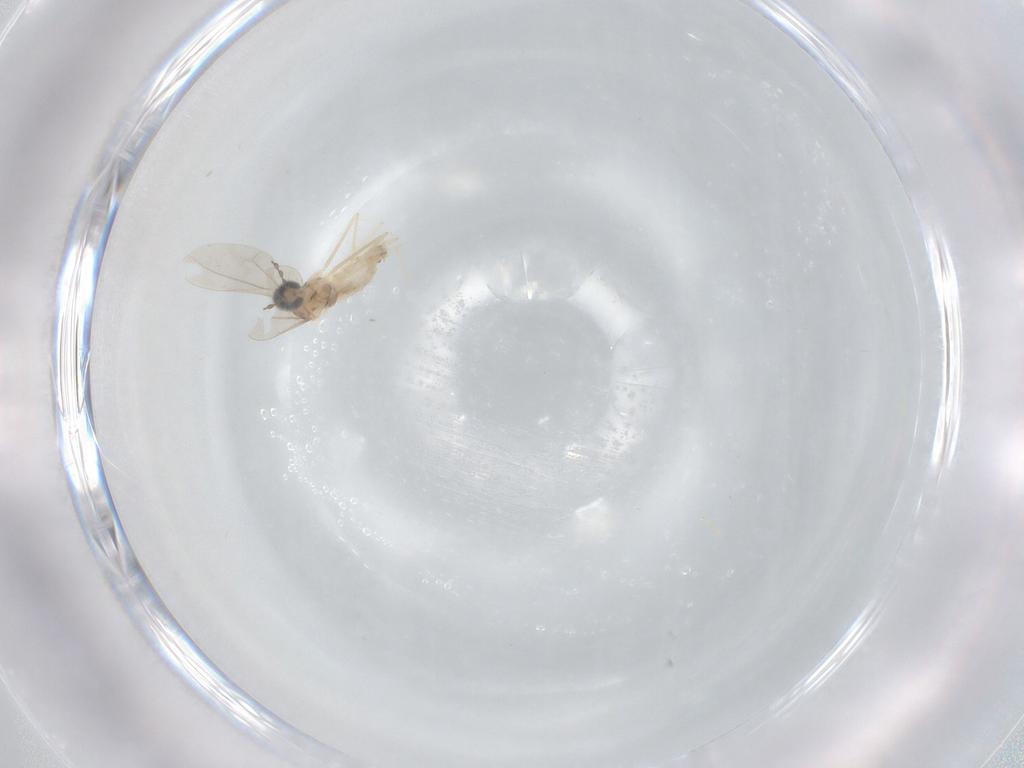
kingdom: Animalia
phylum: Arthropoda
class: Insecta
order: Diptera
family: Cecidomyiidae
